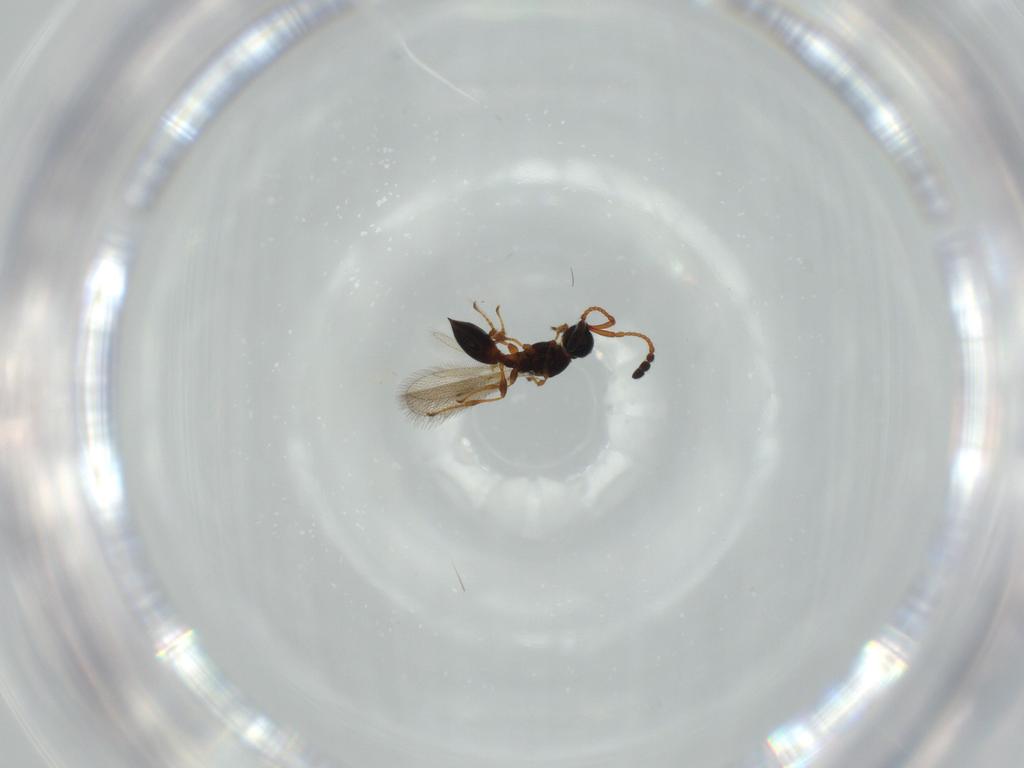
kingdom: Animalia
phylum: Arthropoda
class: Insecta
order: Hymenoptera
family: Diapriidae
